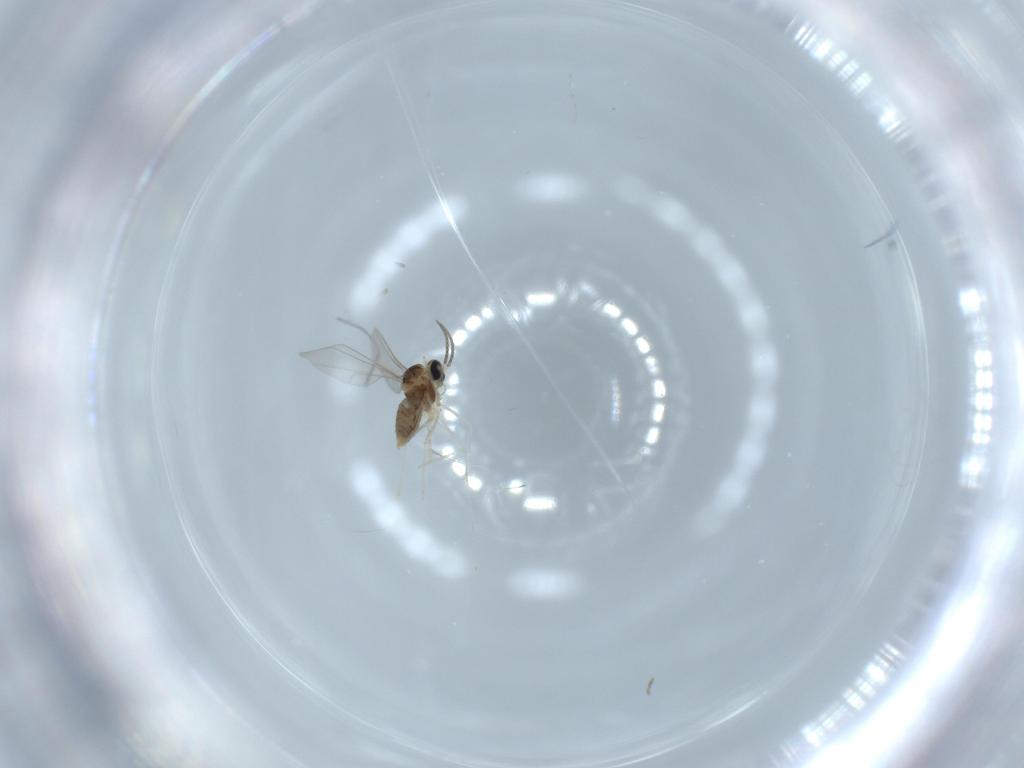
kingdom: Animalia
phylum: Arthropoda
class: Insecta
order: Diptera
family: Cecidomyiidae
